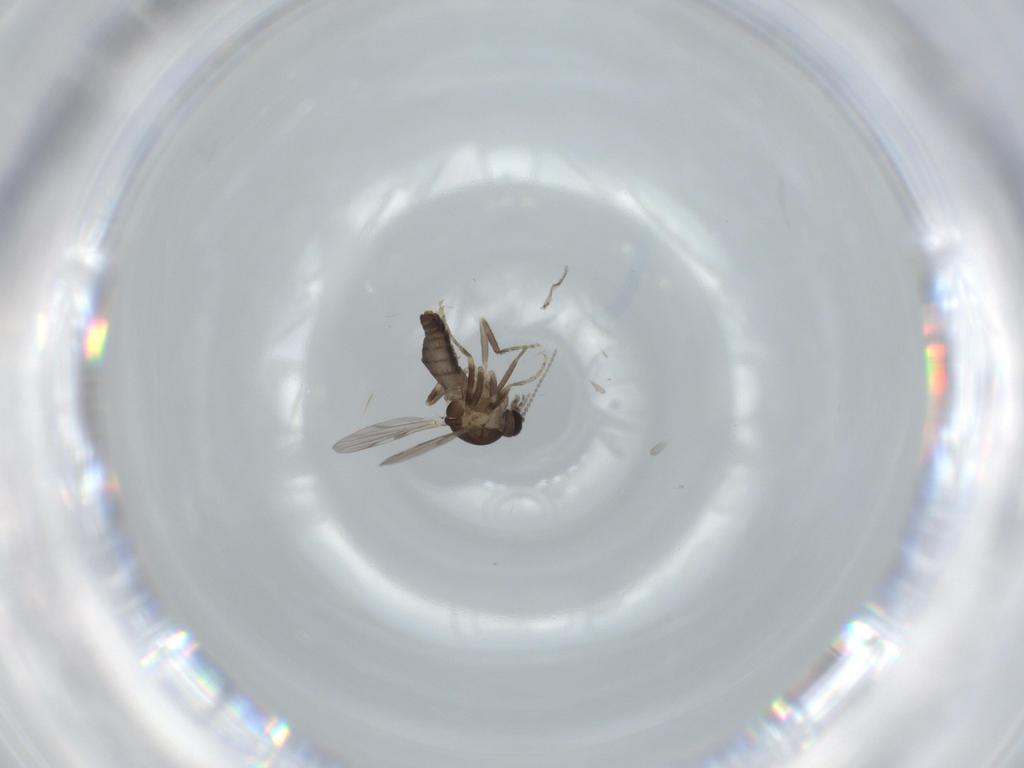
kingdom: Animalia
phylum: Arthropoda
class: Insecta
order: Diptera
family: Ceratopogonidae
